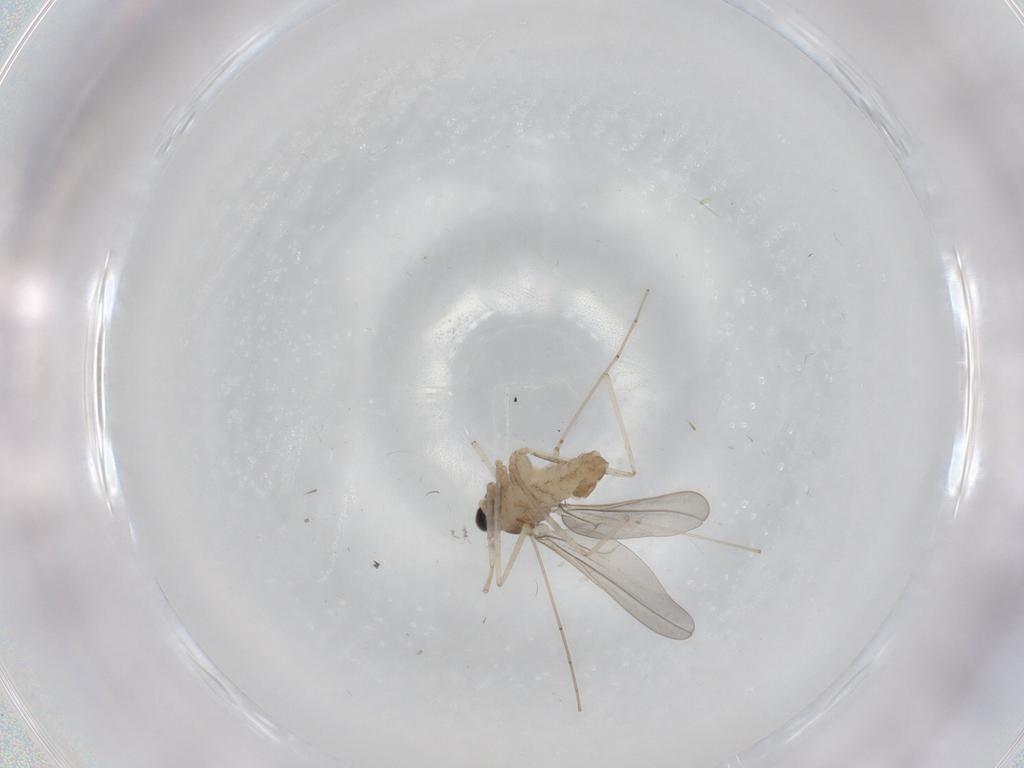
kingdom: Animalia
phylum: Arthropoda
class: Insecta
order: Diptera
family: Cecidomyiidae
